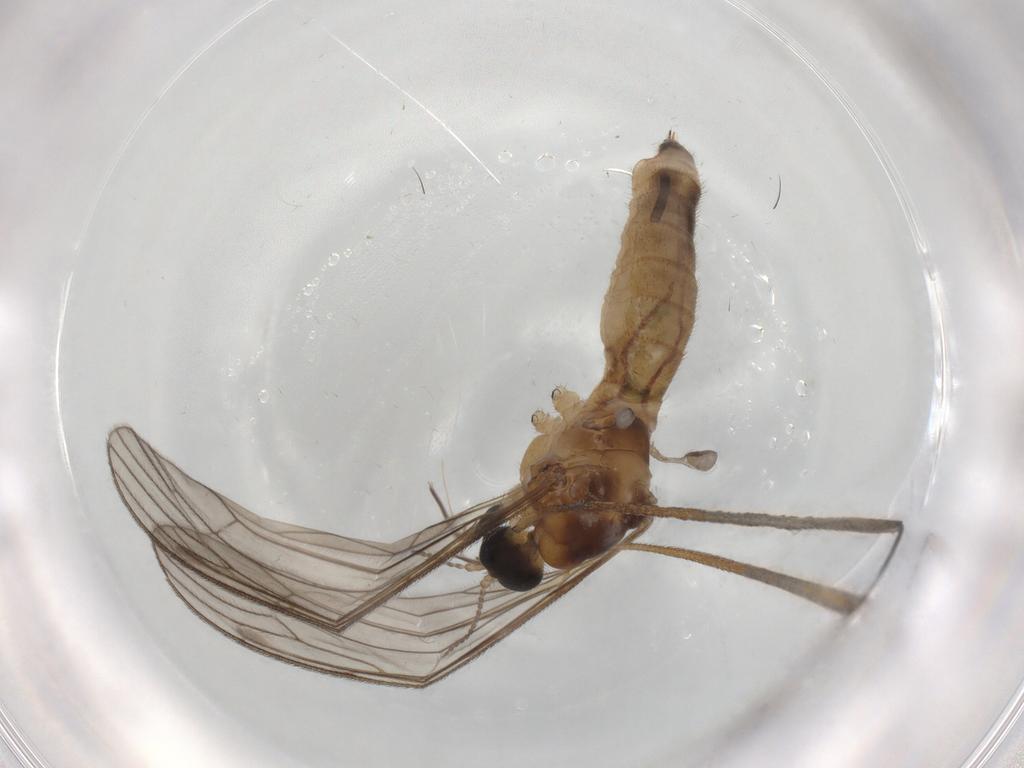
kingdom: Animalia
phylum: Arthropoda
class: Insecta
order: Diptera
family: Limoniidae
